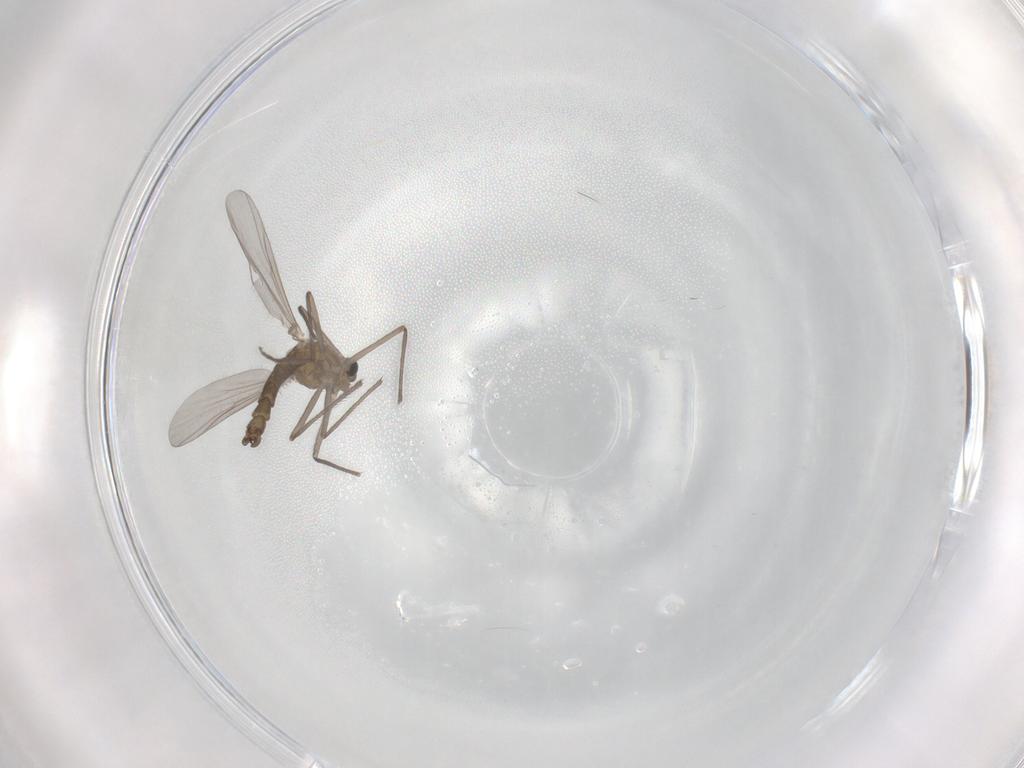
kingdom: Animalia
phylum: Arthropoda
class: Insecta
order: Diptera
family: Chironomidae
